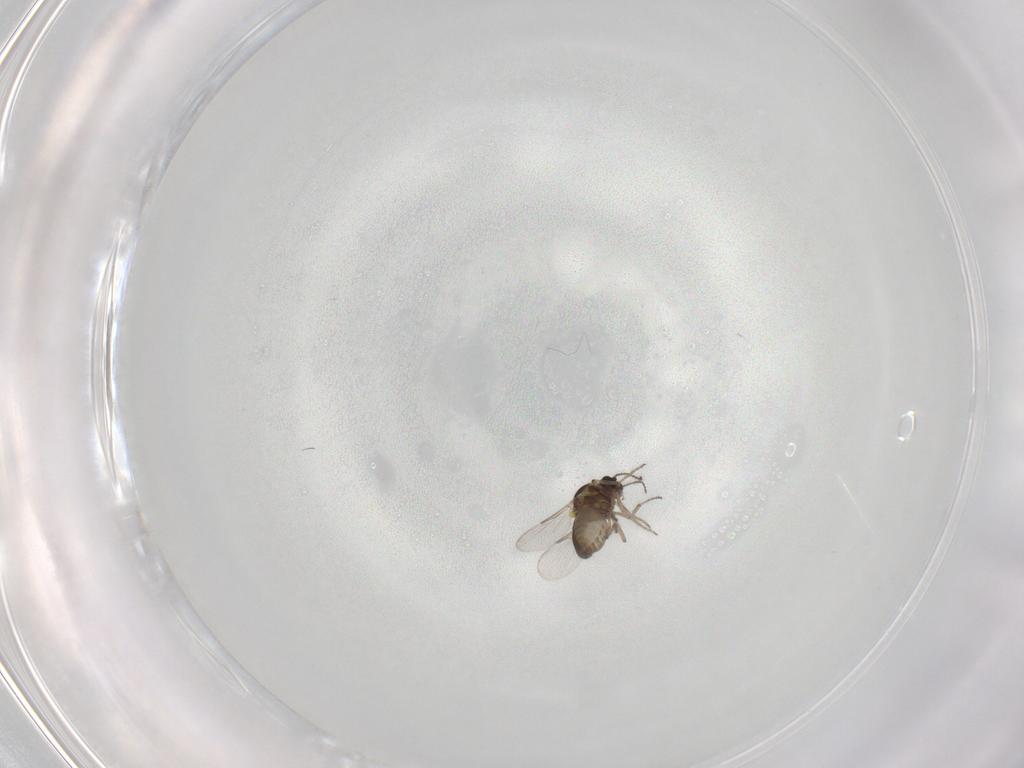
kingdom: Animalia
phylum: Arthropoda
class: Insecta
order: Diptera
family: Ceratopogonidae
